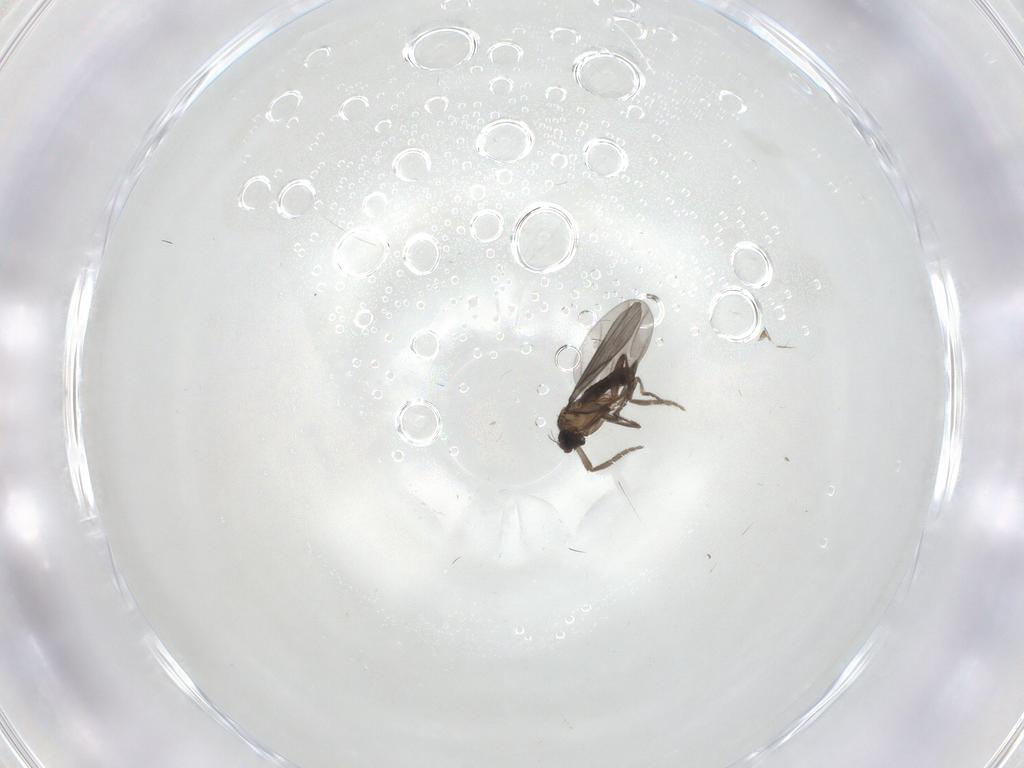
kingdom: Animalia
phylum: Arthropoda
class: Insecta
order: Diptera
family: Phoridae
